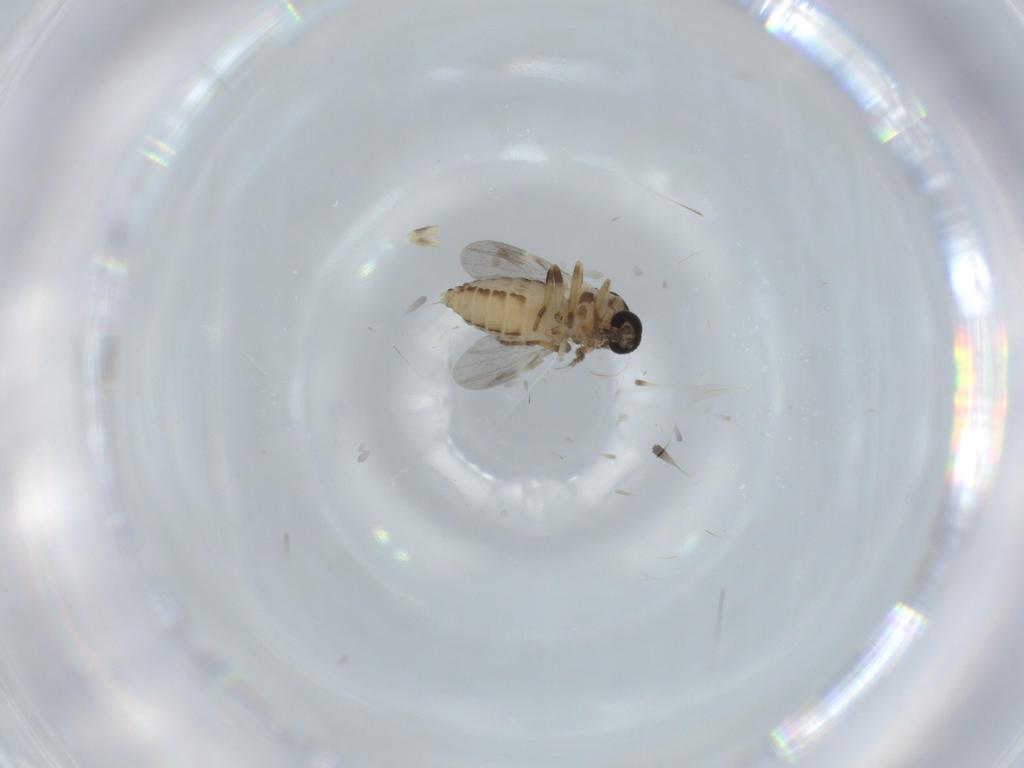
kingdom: Animalia
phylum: Arthropoda
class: Insecta
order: Diptera
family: Ceratopogonidae
